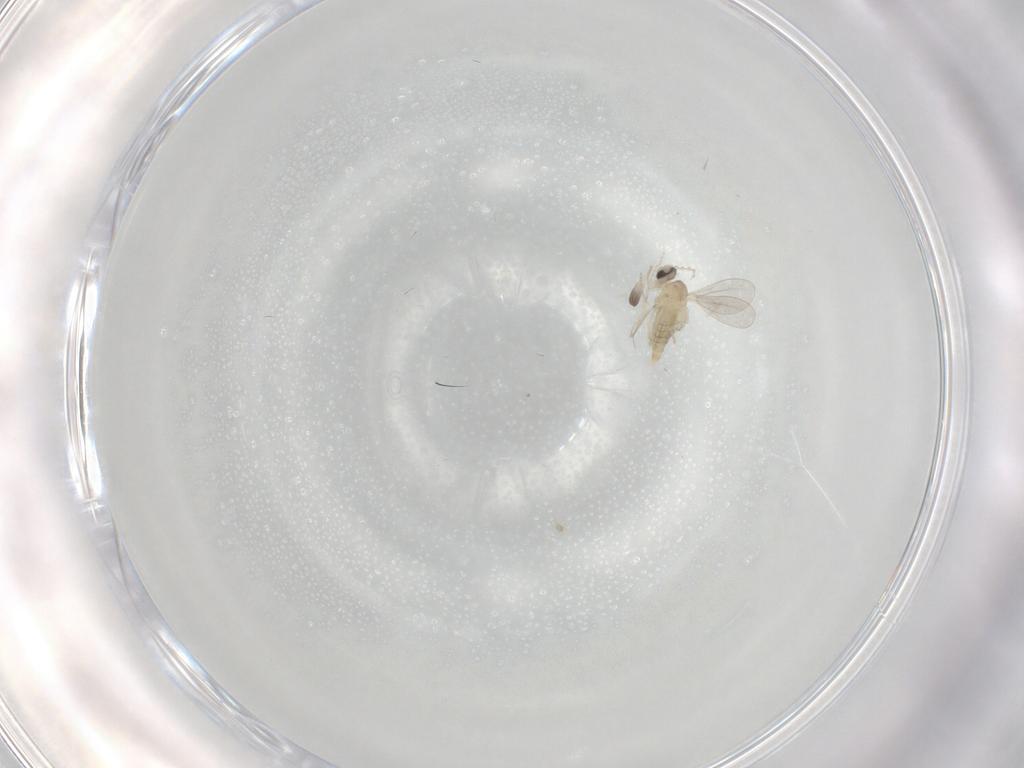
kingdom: Animalia
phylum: Arthropoda
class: Insecta
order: Diptera
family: Cecidomyiidae
